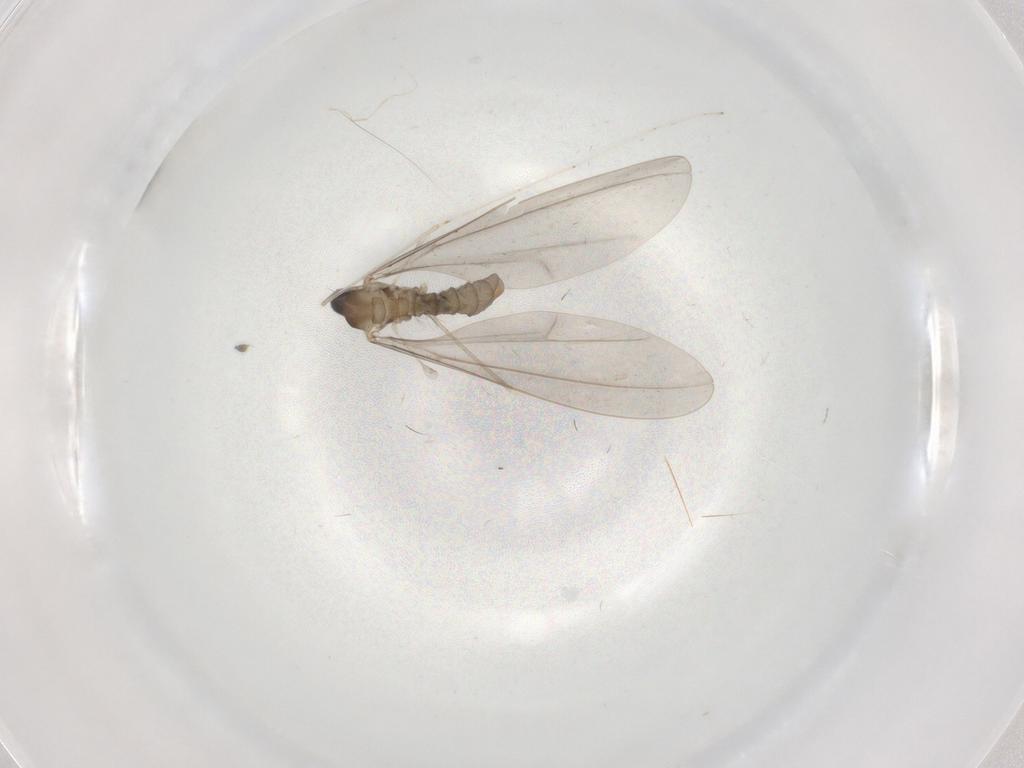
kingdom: Animalia
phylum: Arthropoda
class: Insecta
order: Diptera
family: Cecidomyiidae
